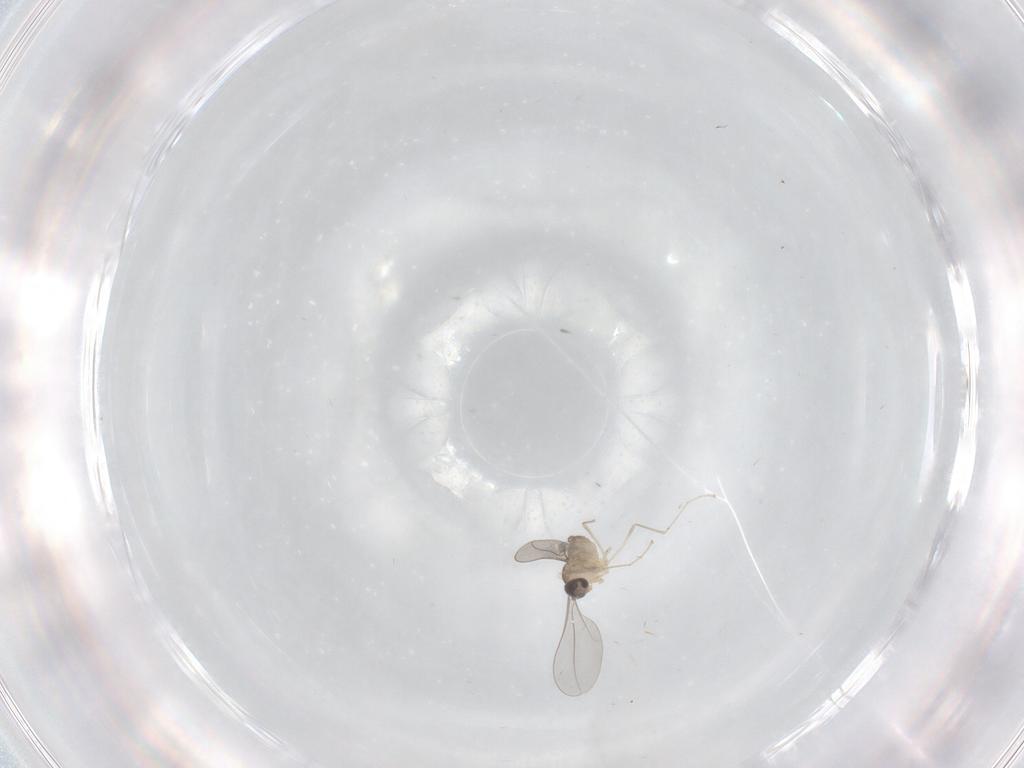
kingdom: Animalia
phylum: Arthropoda
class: Insecta
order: Diptera
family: Cecidomyiidae
